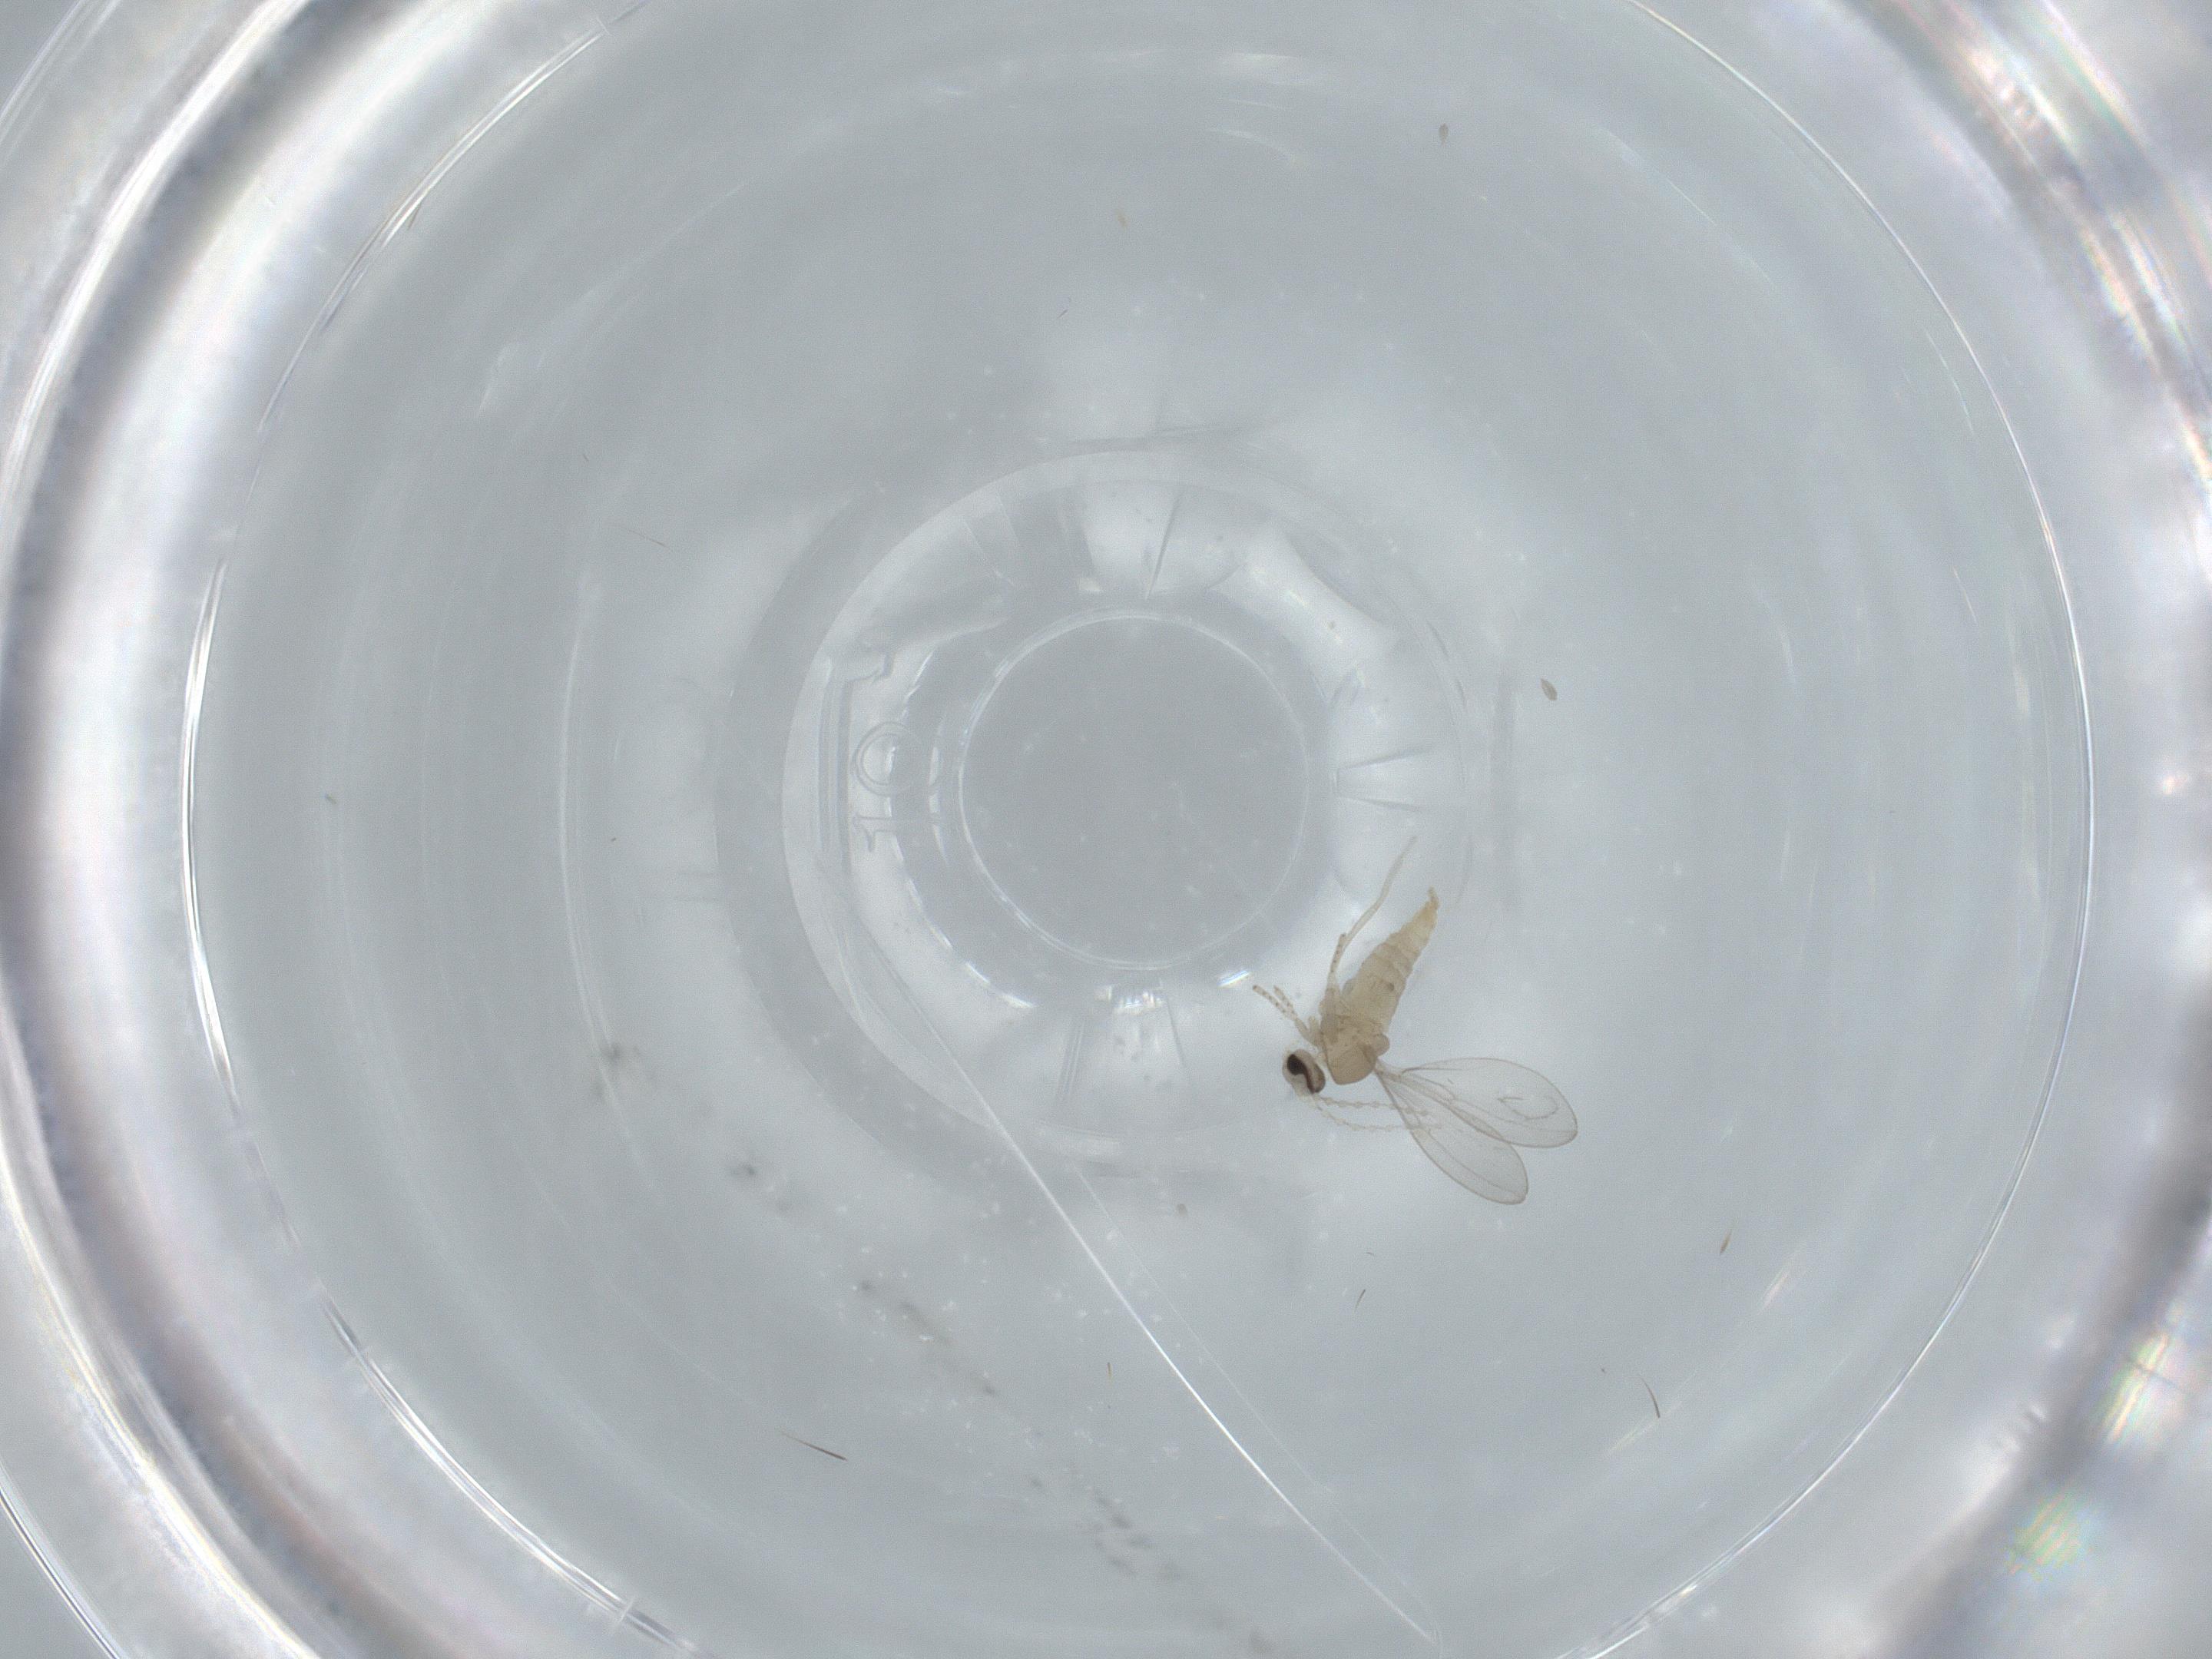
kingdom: Animalia
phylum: Arthropoda
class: Insecta
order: Diptera
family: Cecidomyiidae
